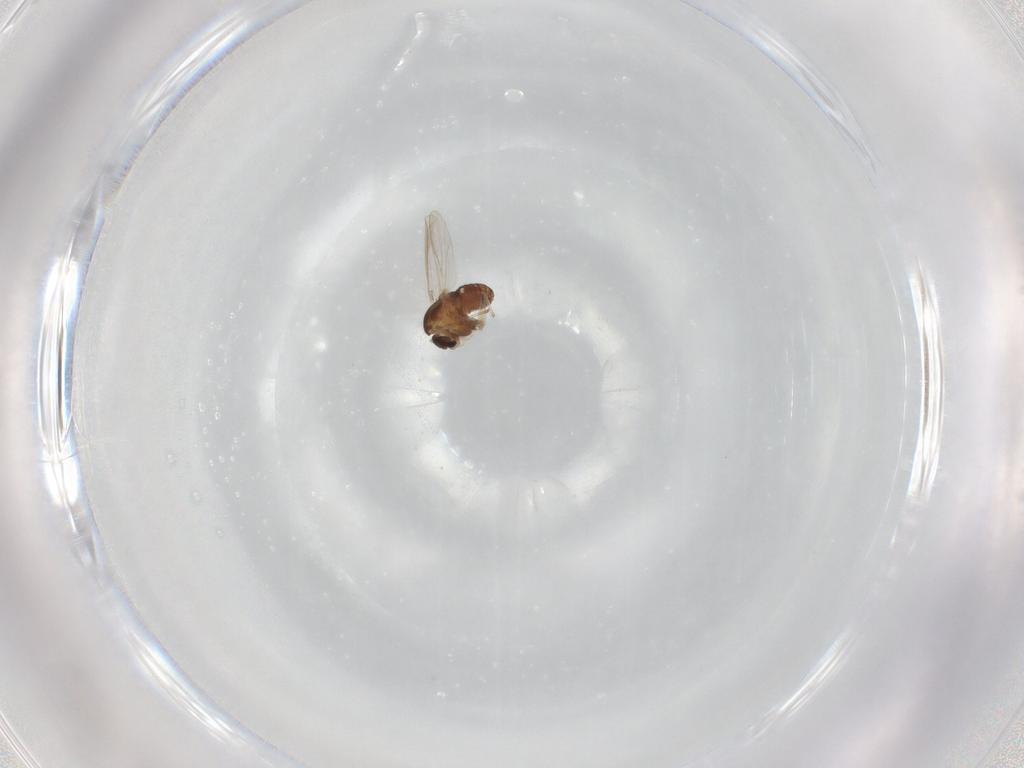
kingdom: Animalia
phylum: Arthropoda
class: Insecta
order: Diptera
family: Chironomidae
